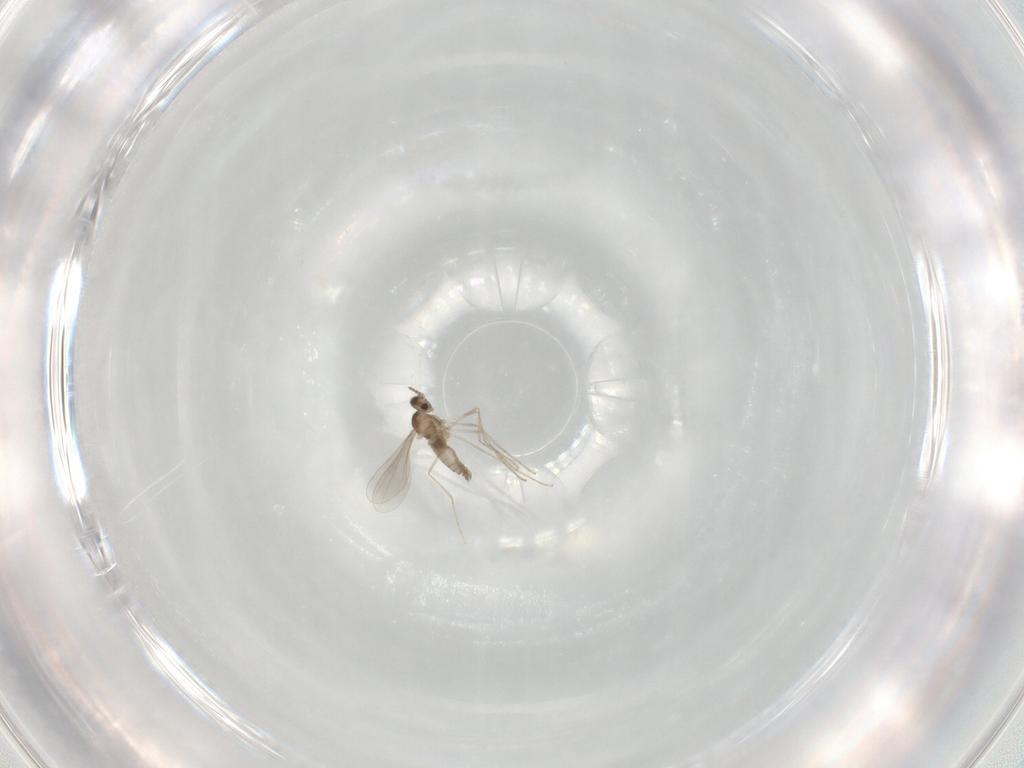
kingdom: Animalia
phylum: Arthropoda
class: Insecta
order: Diptera
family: Cecidomyiidae
